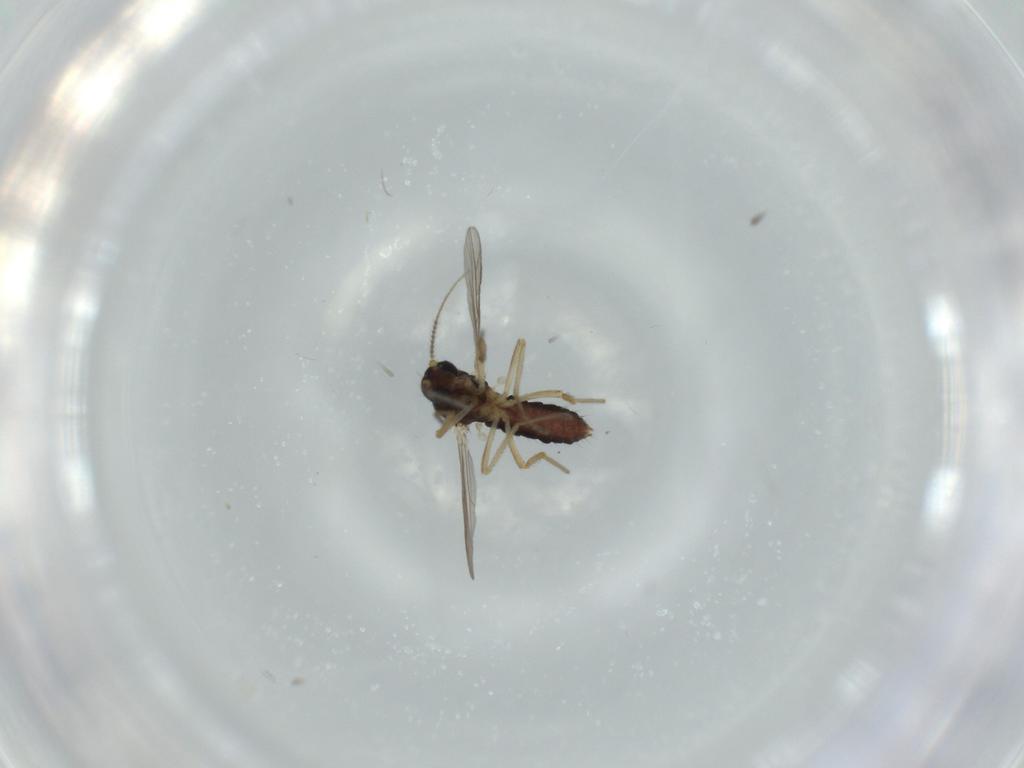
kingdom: Animalia
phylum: Arthropoda
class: Insecta
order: Diptera
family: Ceratopogonidae
